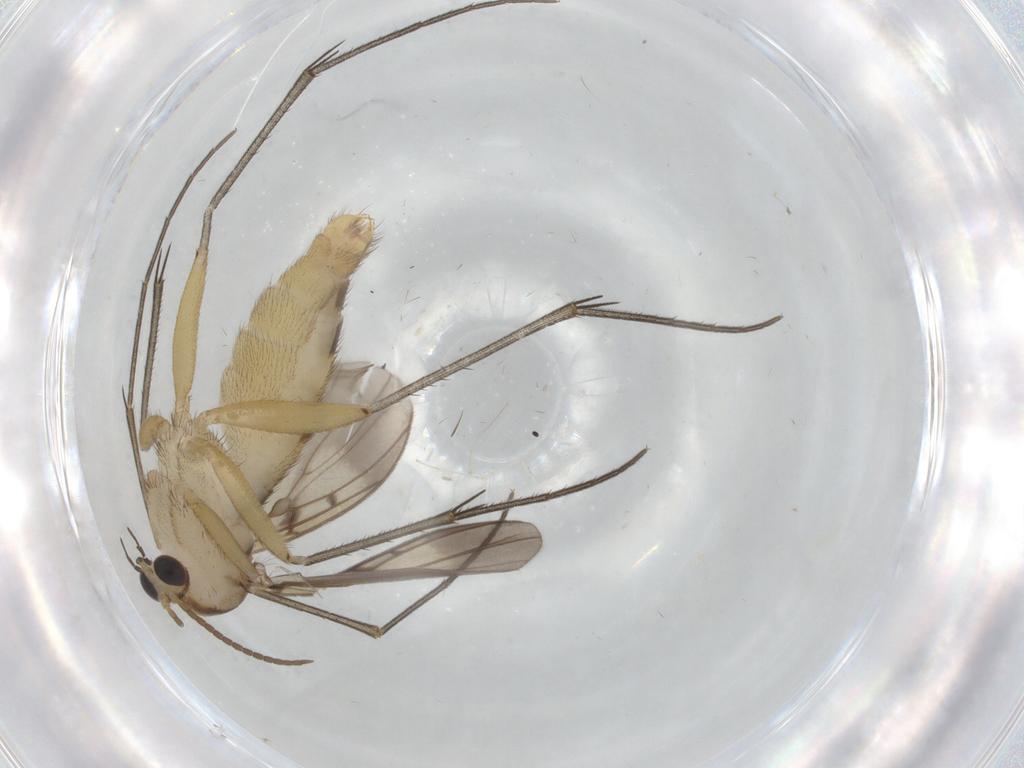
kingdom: Animalia
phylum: Arthropoda
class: Insecta
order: Diptera
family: Mycetophilidae
